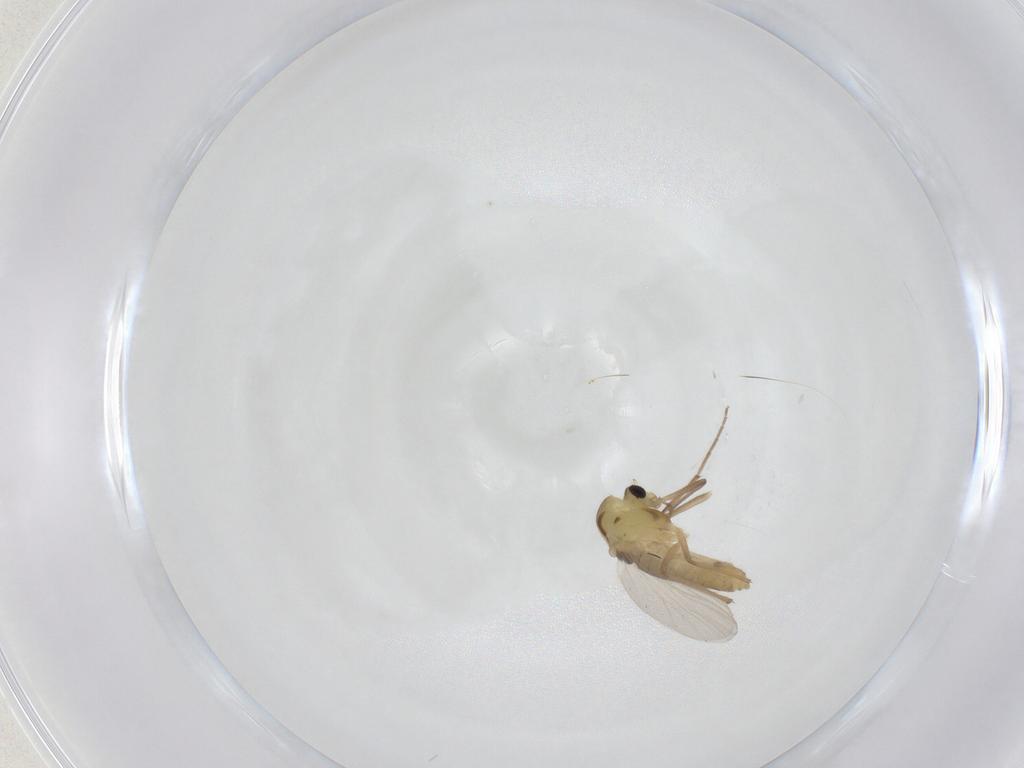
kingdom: Animalia
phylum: Arthropoda
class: Insecta
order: Diptera
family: Chironomidae
